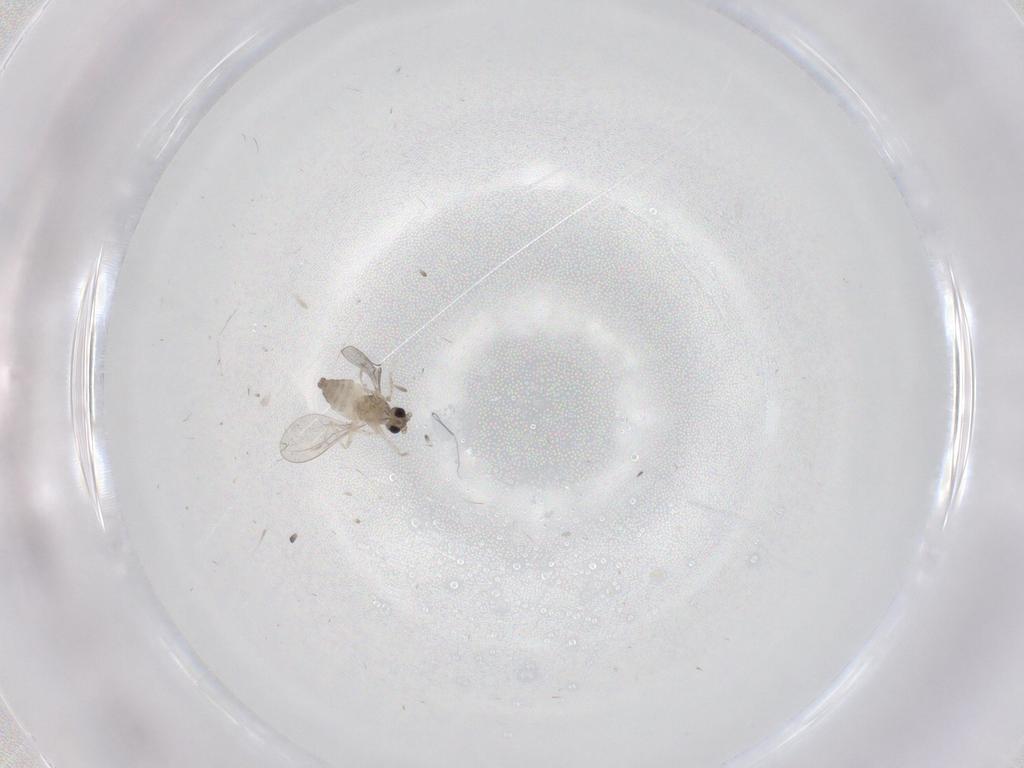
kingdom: Animalia
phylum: Arthropoda
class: Insecta
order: Diptera
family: Cecidomyiidae
